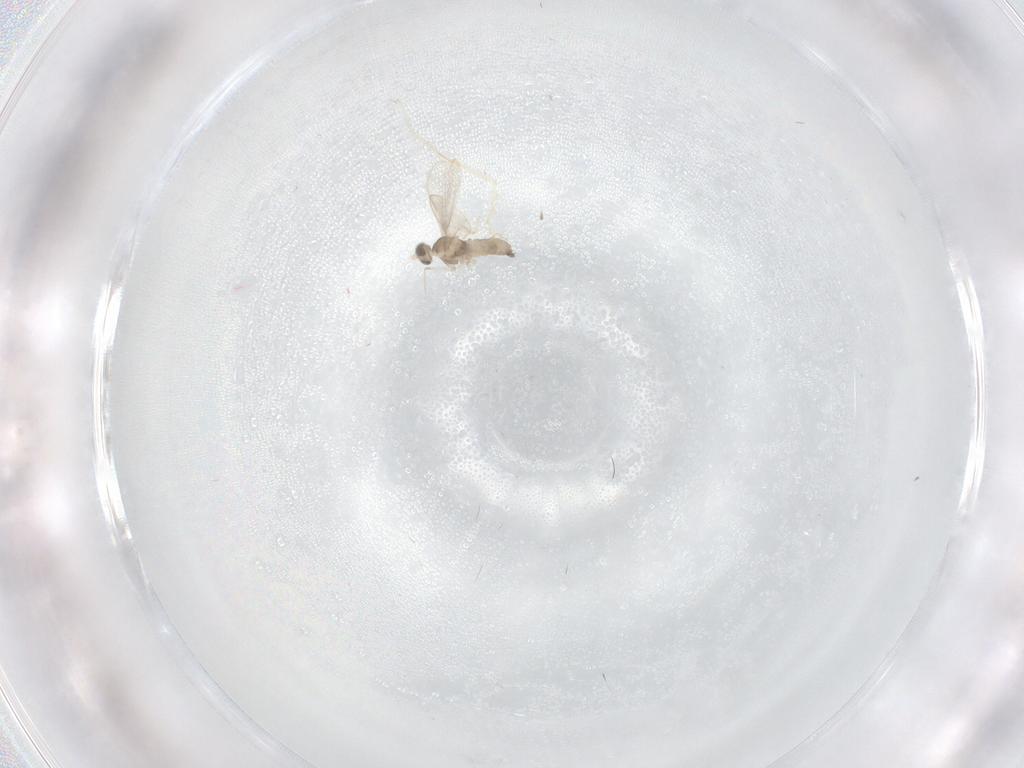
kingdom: Animalia
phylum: Arthropoda
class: Insecta
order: Diptera
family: Cecidomyiidae
